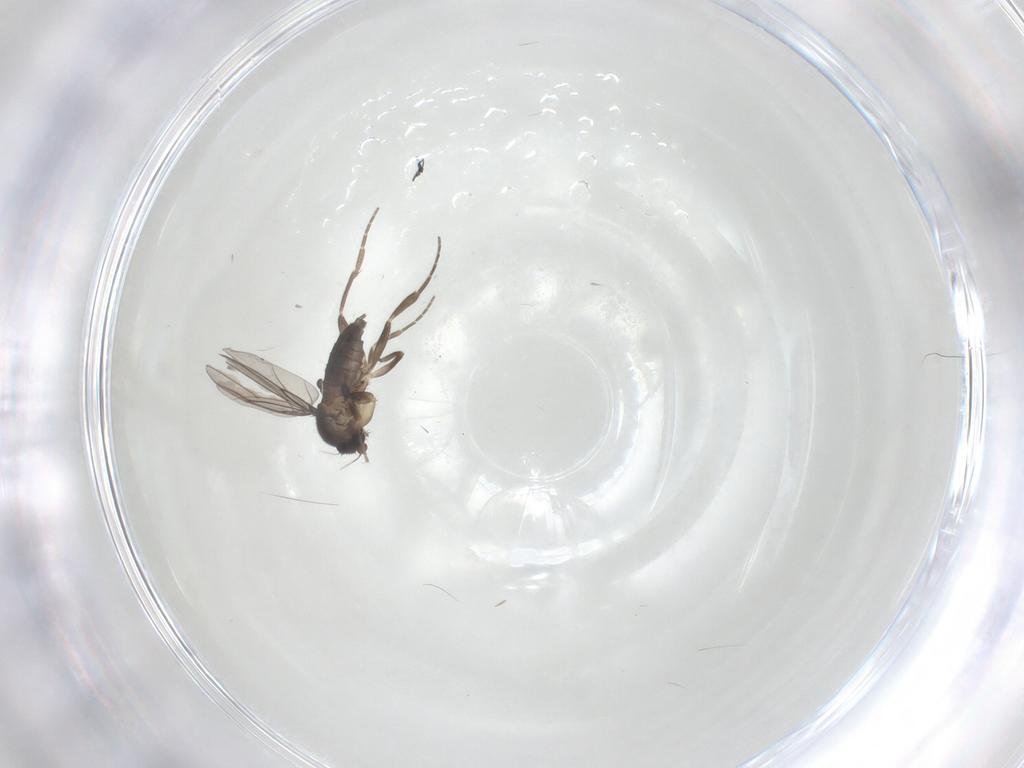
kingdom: Animalia
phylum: Arthropoda
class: Insecta
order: Diptera
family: Phoridae
